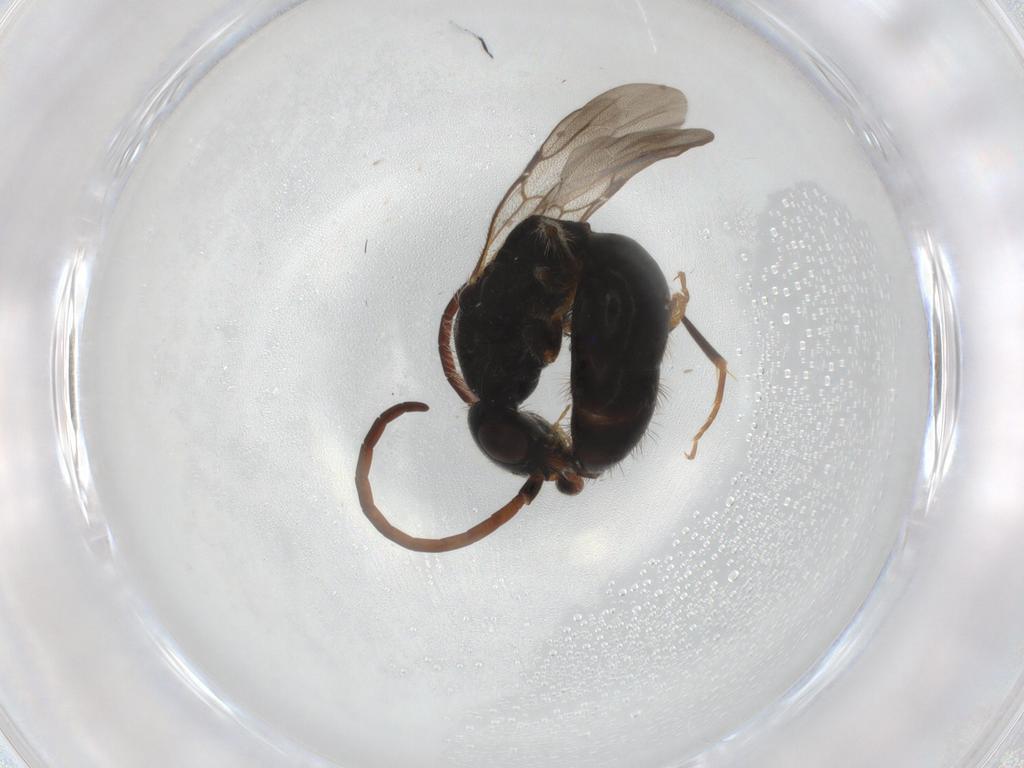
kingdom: Animalia
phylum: Arthropoda
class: Insecta
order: Hymenoptera
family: Bethylidae
